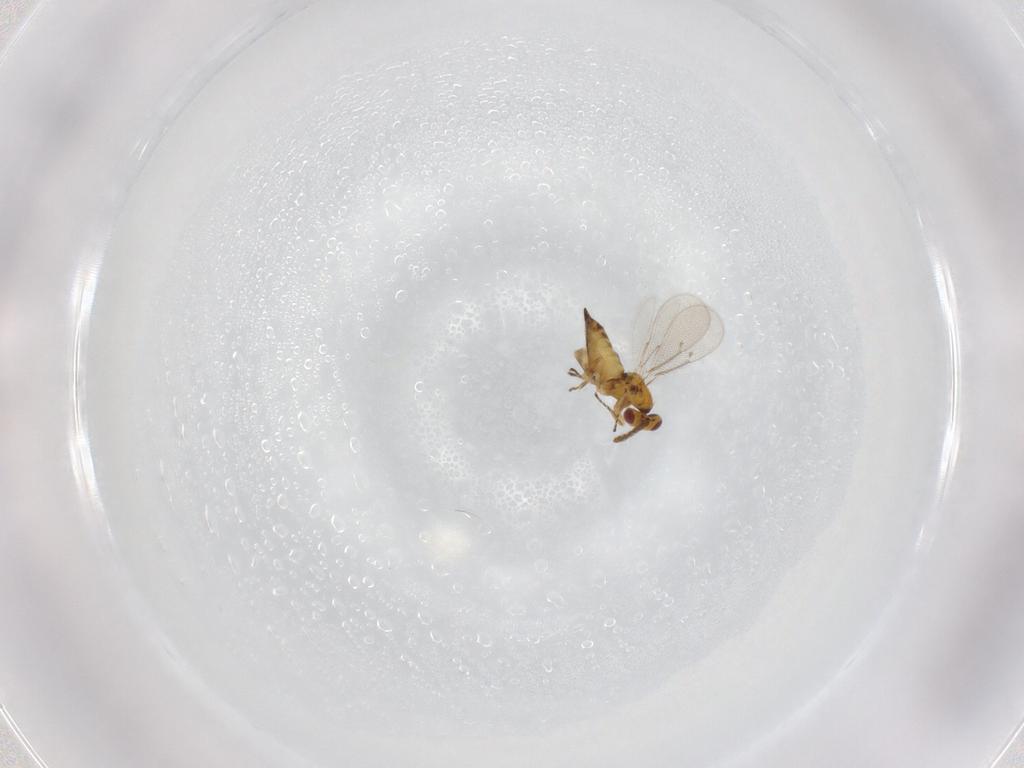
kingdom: Animalia
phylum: Arthropoda
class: Insecta
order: Hymenoptera
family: Eulophidae
